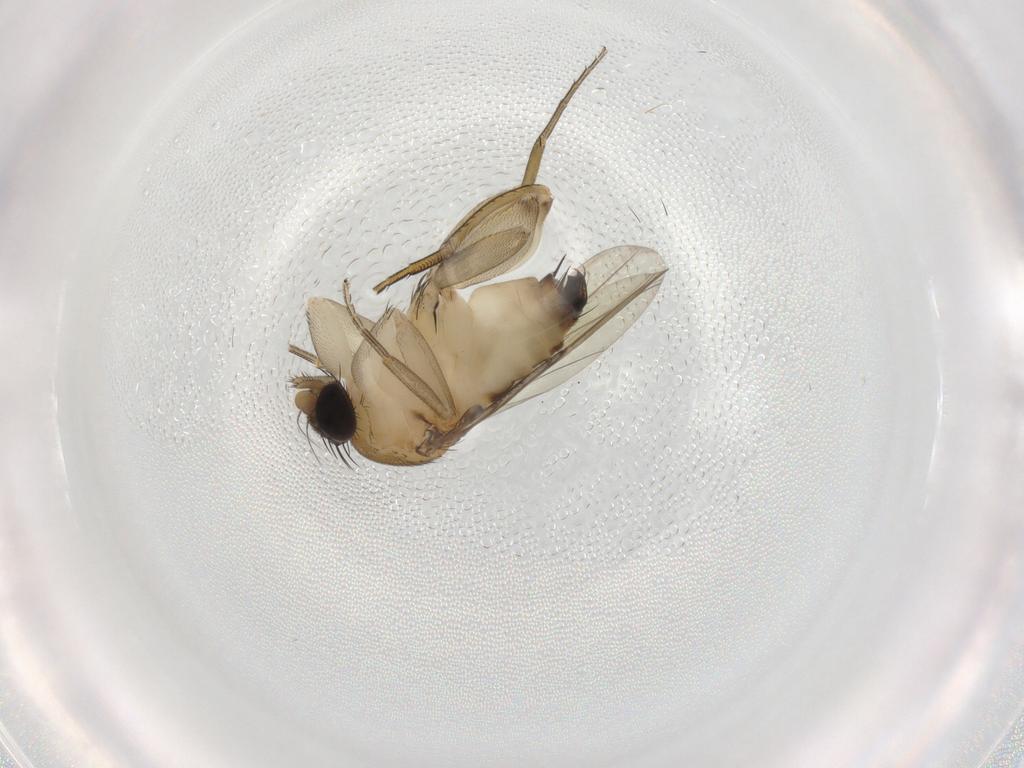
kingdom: Animalia
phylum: Arthropoda
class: Insecta
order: Diptera
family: Phoridae
